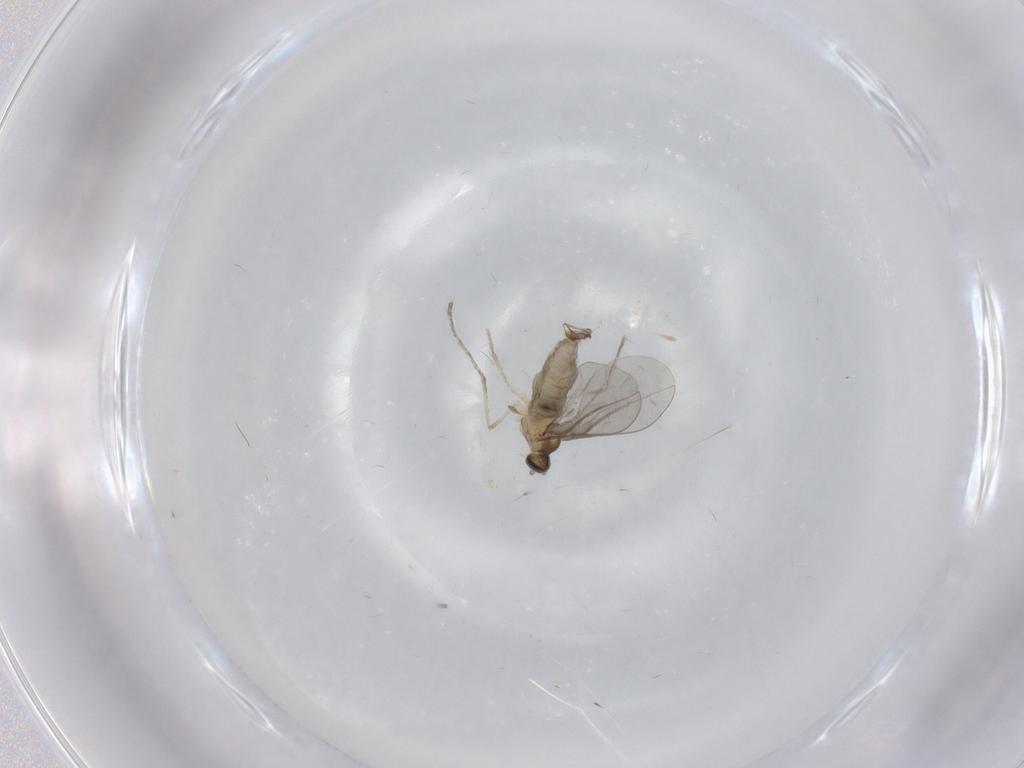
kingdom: Animalia
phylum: Arthropoda
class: Insecta
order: Diptera
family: Cecidomyiidae
